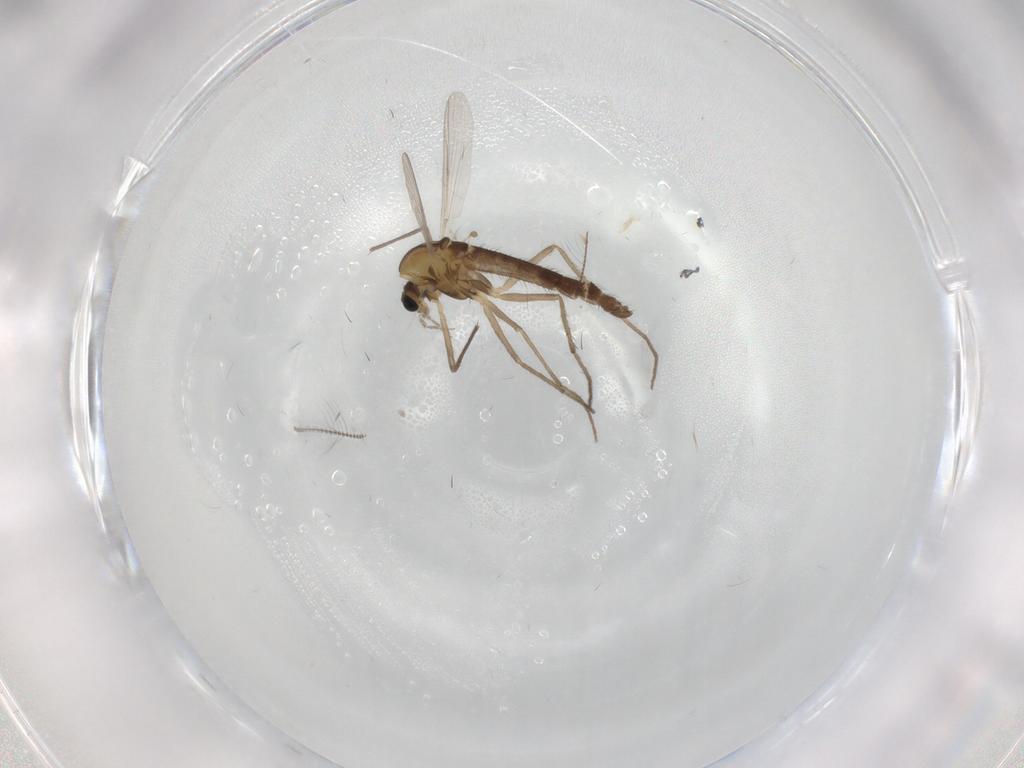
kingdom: Animalia
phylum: Arthropoda
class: Insecta
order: Diptera
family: Chironomidae
